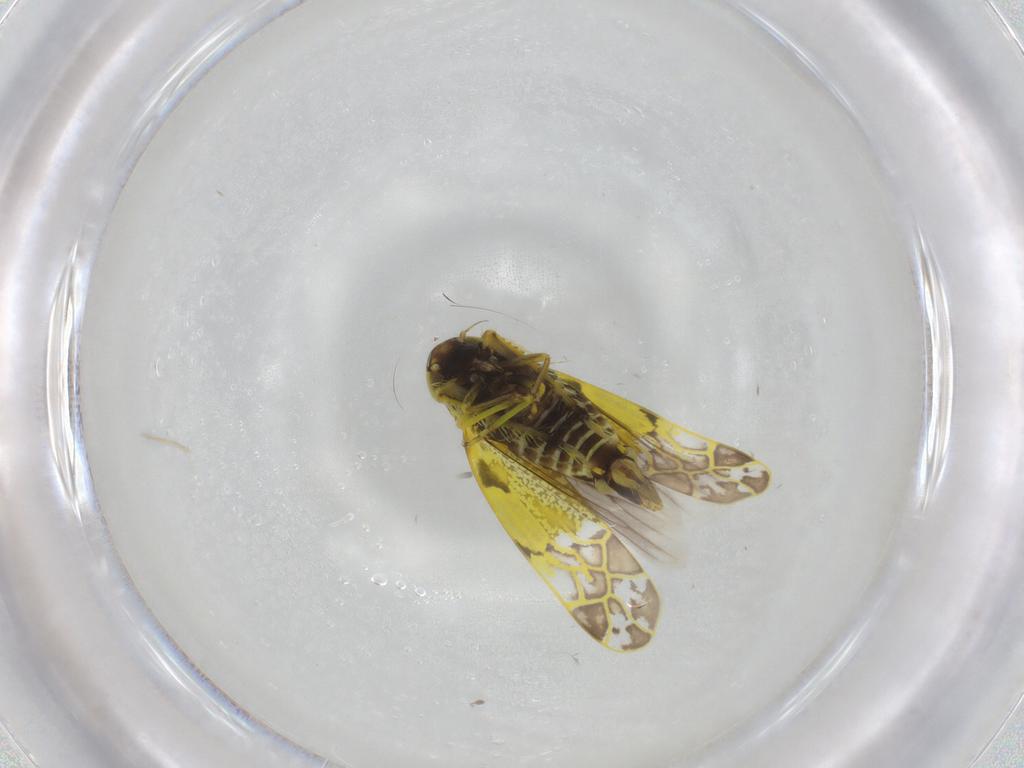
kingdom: Animalia
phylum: Arthropoda
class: Insecta
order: Hemiptera
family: Cicadellidae
